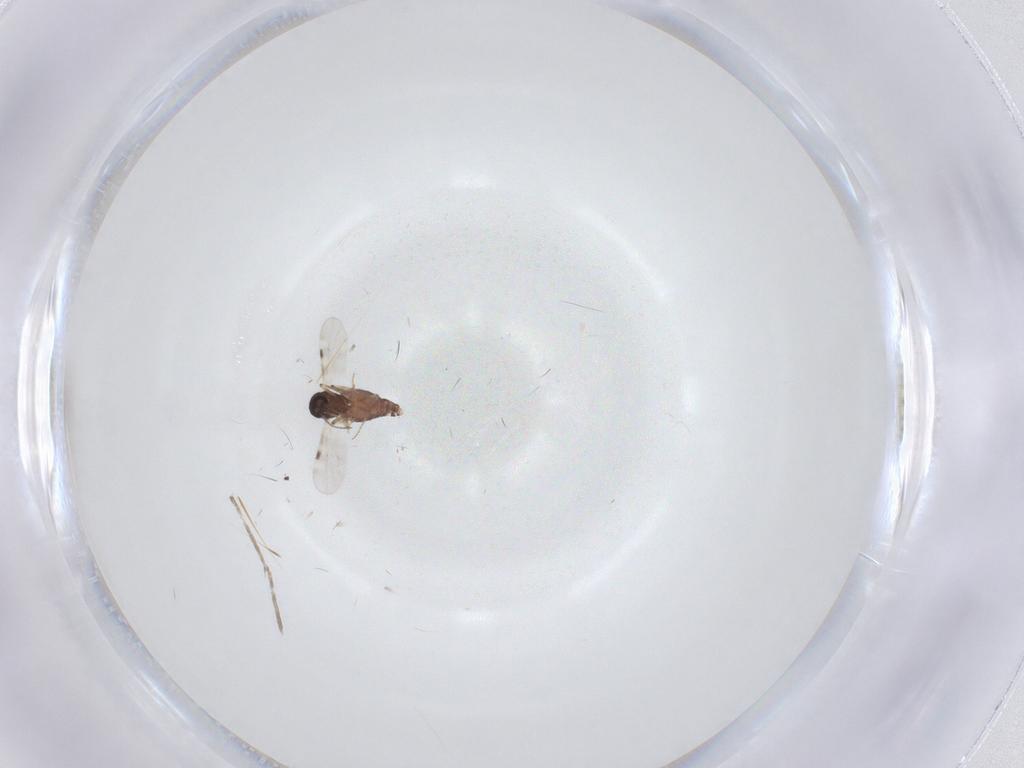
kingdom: Animalia
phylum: Arthropoda
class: Insecta
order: Diptera
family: Cecidomyiidae
